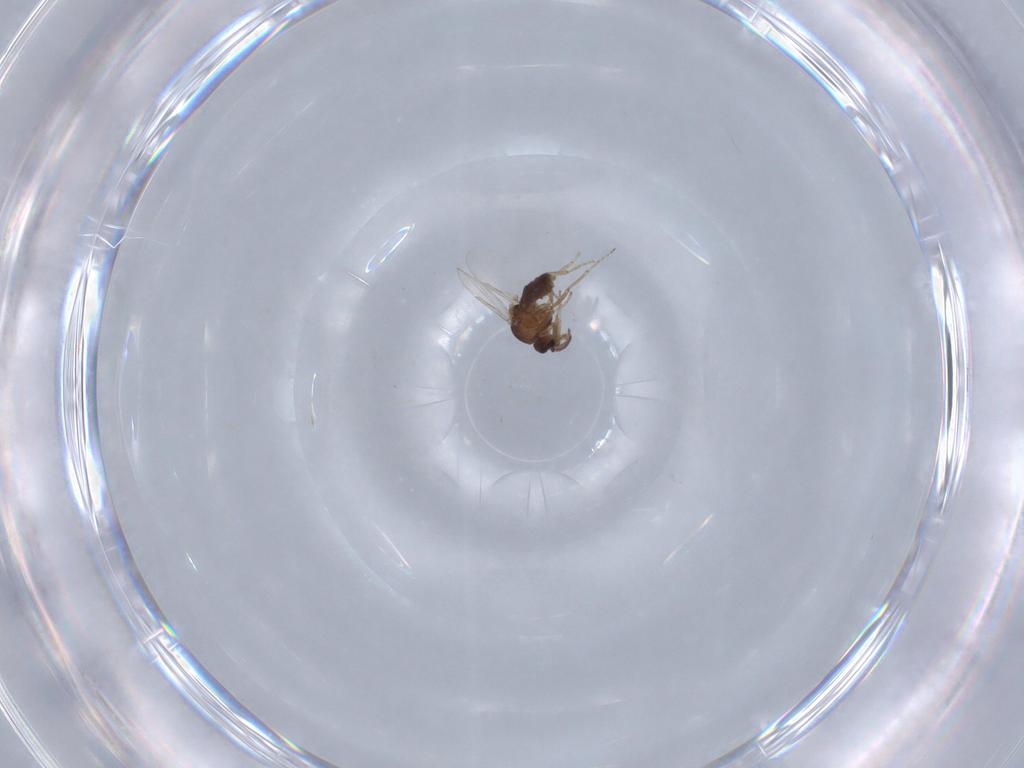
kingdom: Animalia
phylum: Arthropoda
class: Insecta
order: Diptera
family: Ceratopogonidae
